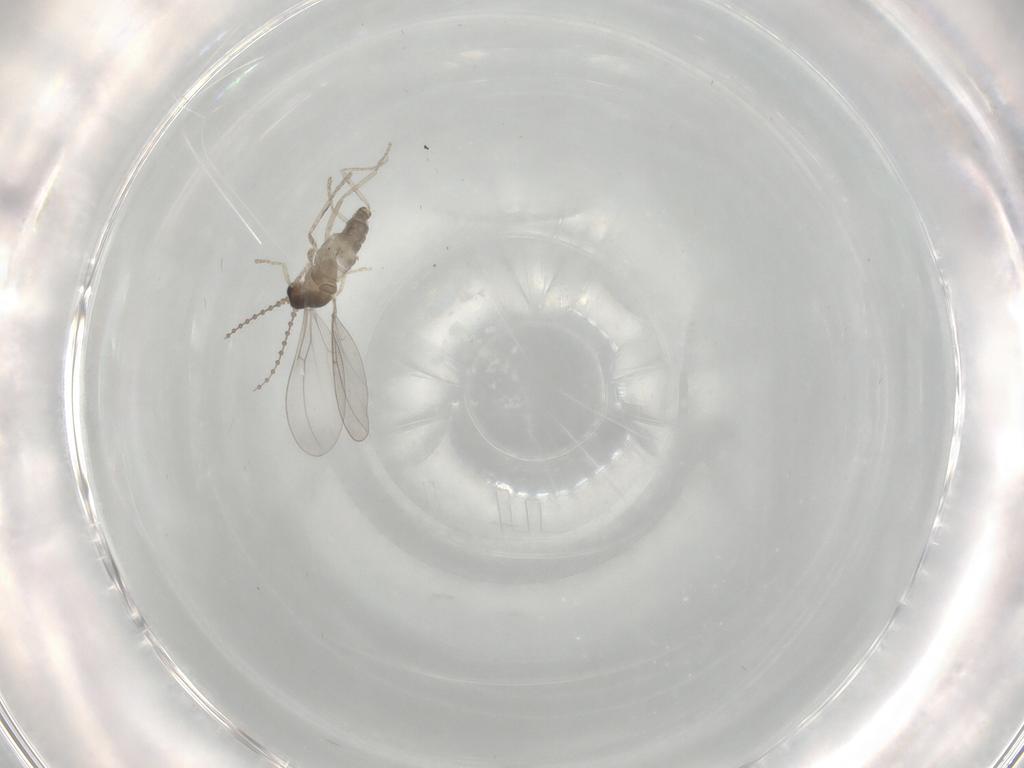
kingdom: Animalia
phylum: Arthropoda
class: Insecta
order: Diptera
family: Cecidomyiidae
